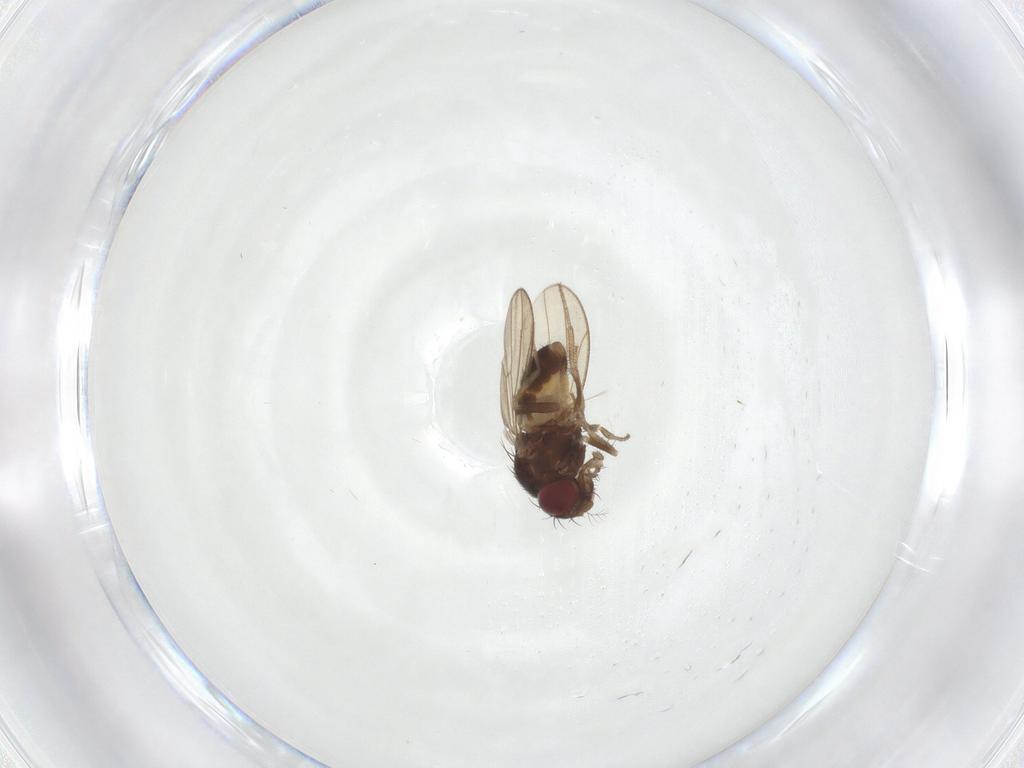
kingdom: Animalia
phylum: Arthropoda
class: Insecta
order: Diptera
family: Drosophilidae
